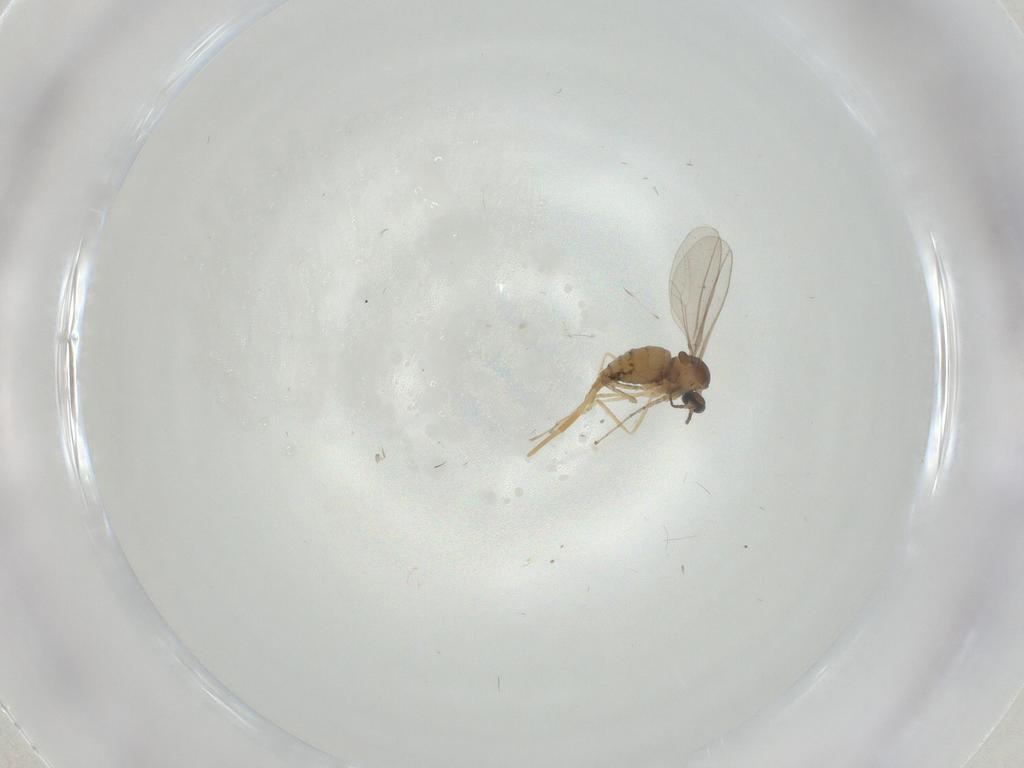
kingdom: Animalia
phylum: Arthropoda
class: Insecta
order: Diptera
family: Cecidomyiidae
